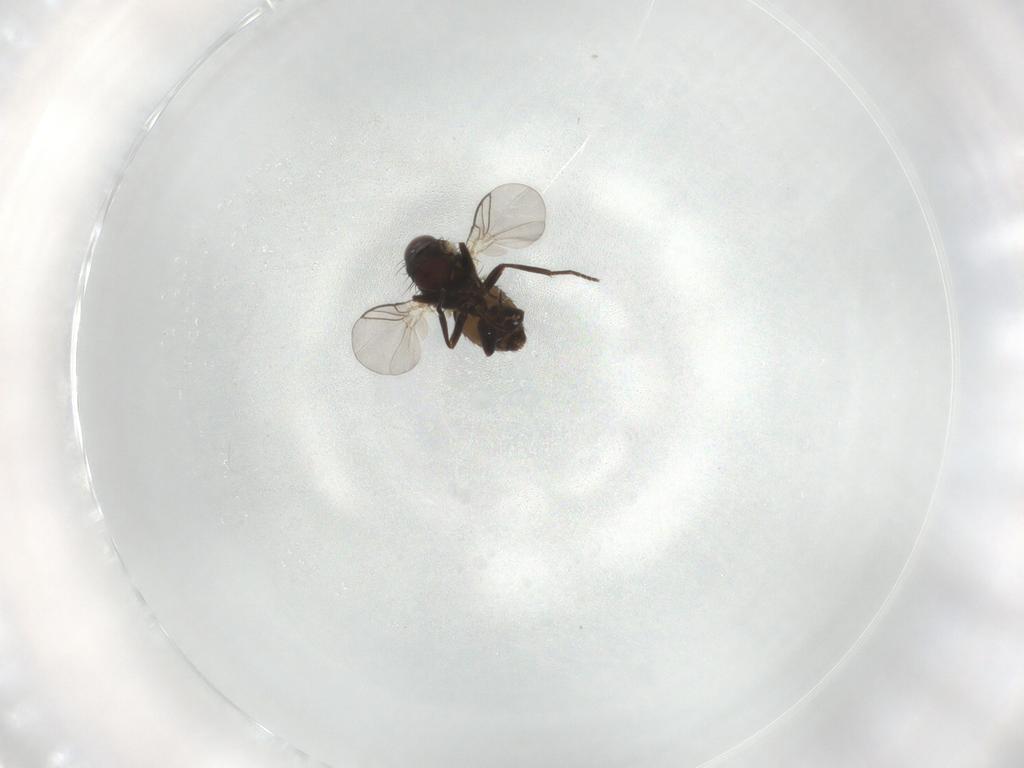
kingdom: Animalia
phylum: Arthropoda
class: Insecta
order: Diptera
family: Agromyzidae
